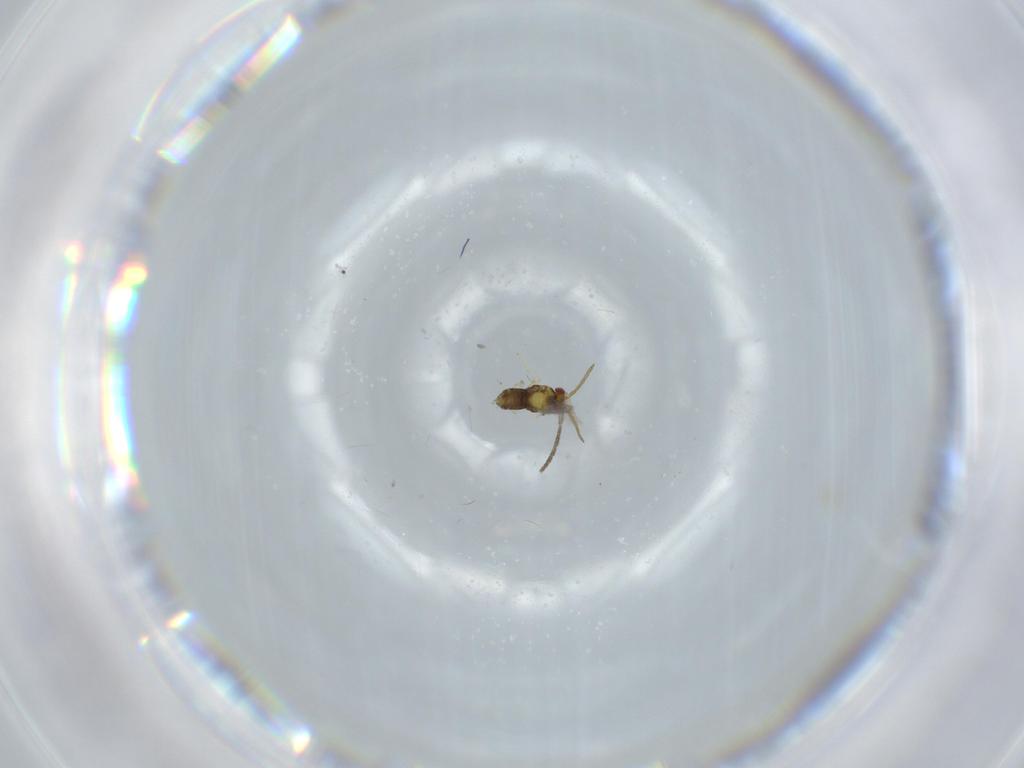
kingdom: Animalia
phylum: Arthropoda
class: Insecta
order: Hymenoptera
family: Aphelinidae
